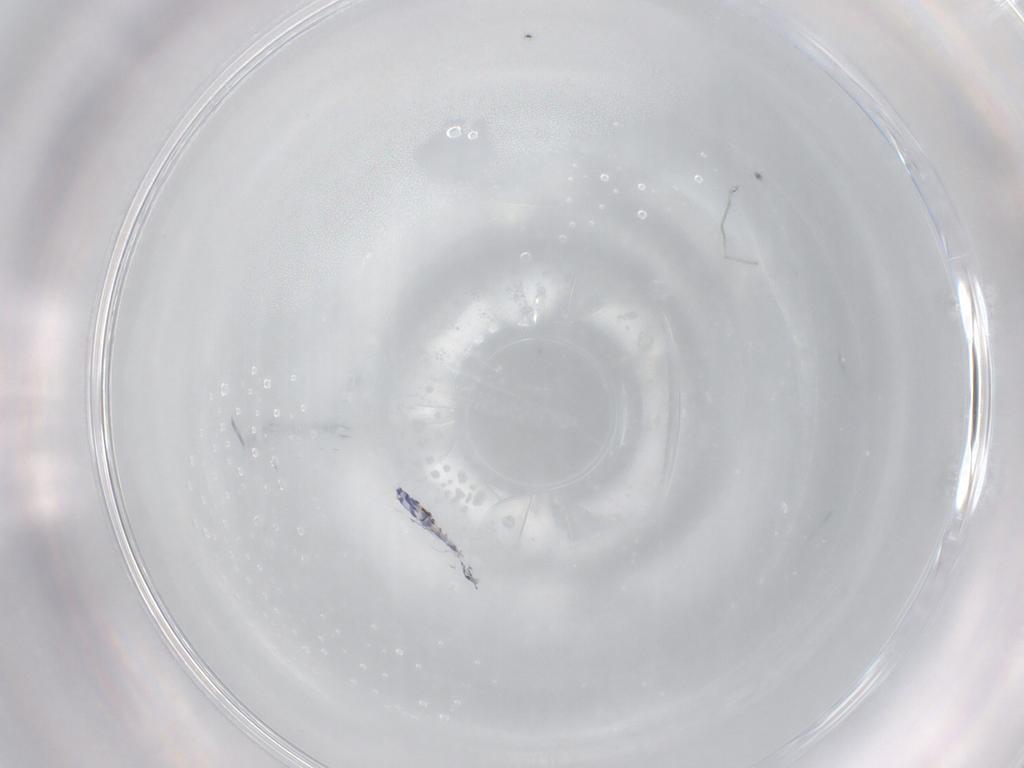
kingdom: Animalia
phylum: Arthropoda
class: Collembola
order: Entomobryomorpha
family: Entomobryidae
